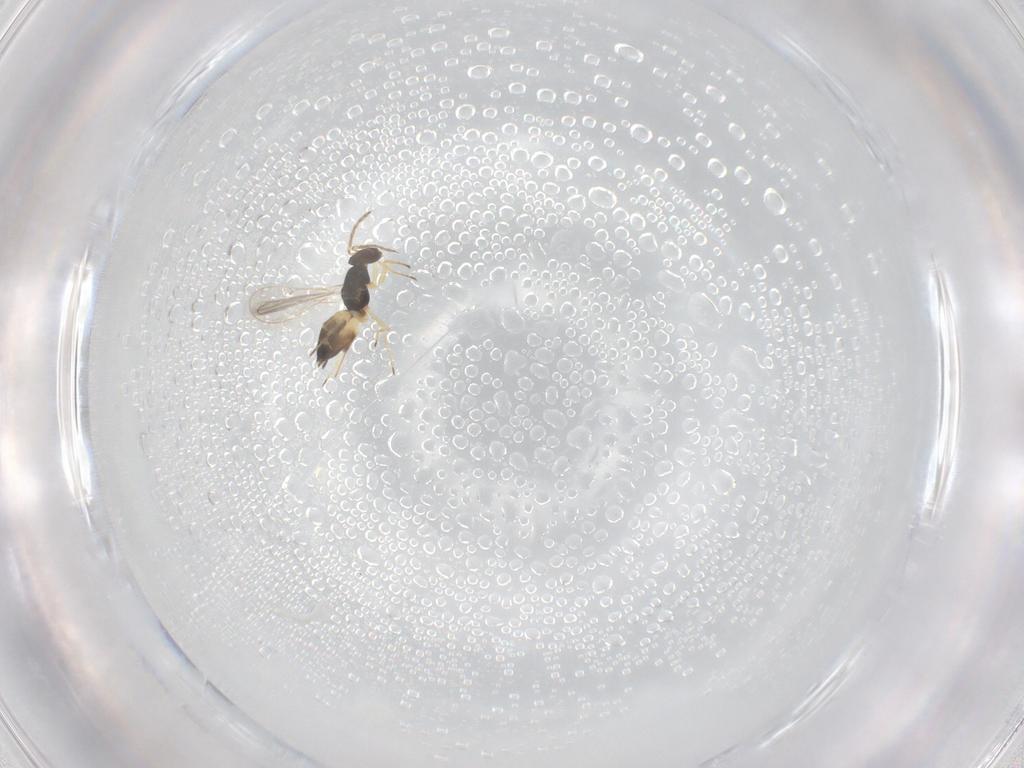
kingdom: Animalia
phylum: Arthropoda
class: Insecta
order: Hymenoptera
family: Eulophidae
